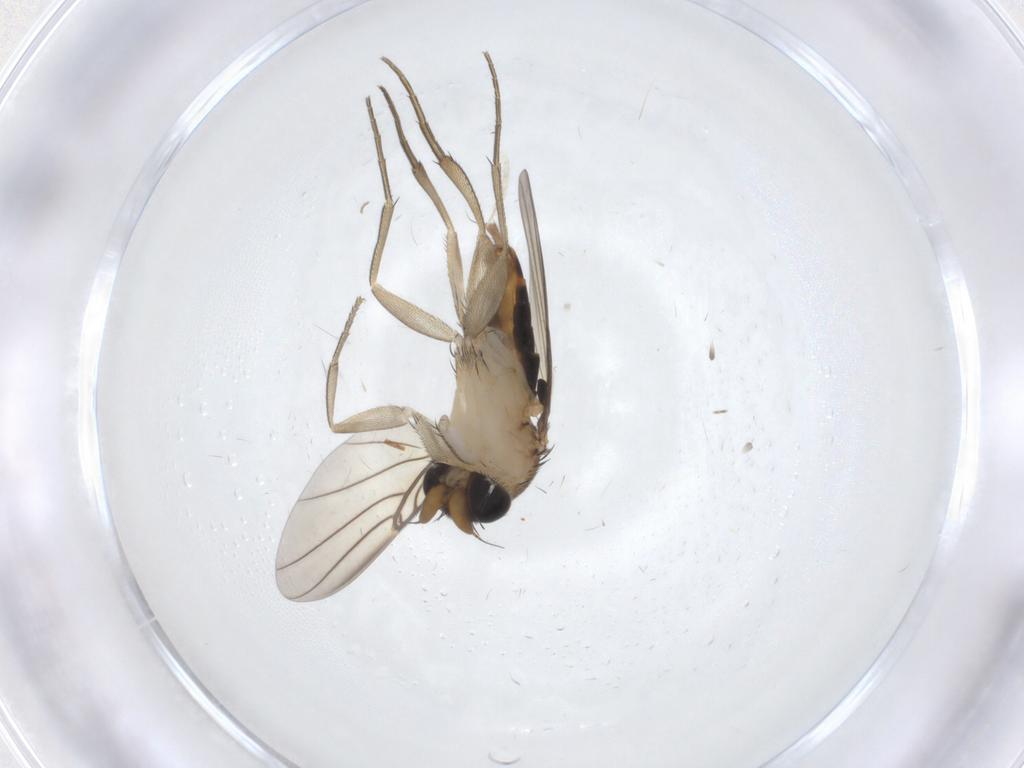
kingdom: Animalia
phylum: Arthropoda
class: Insecta
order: Diptera
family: Phoridae
